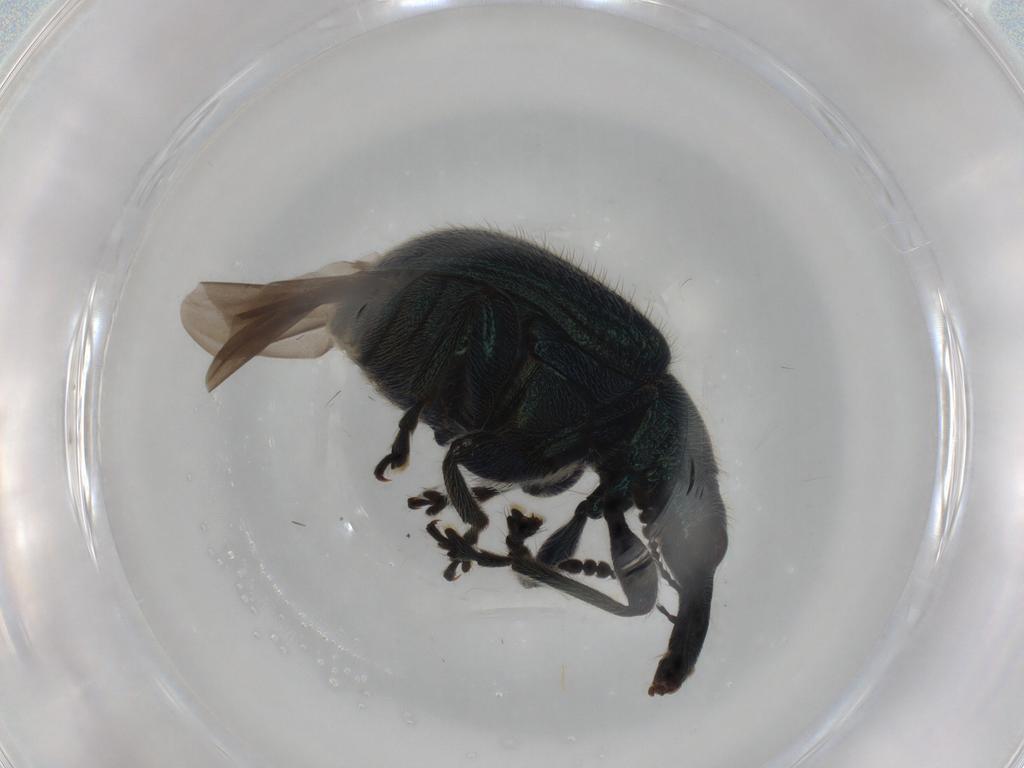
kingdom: Animalia
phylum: Arthropoda
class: Insecta
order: Coleoptera
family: Attelabidae
